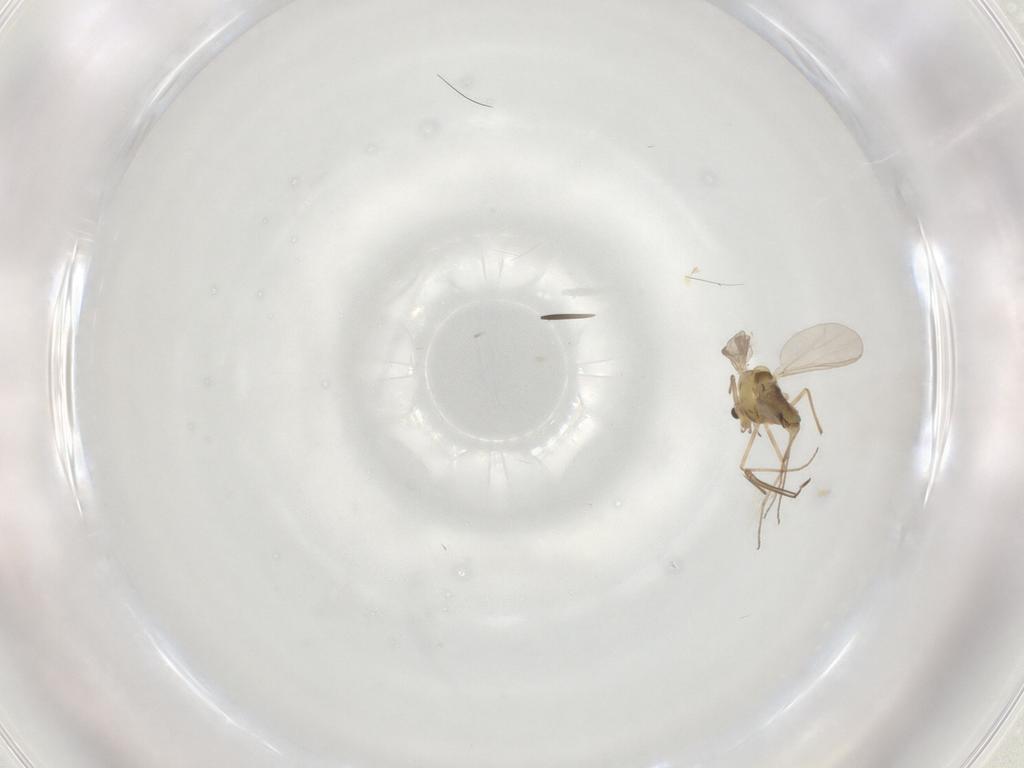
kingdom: Animalia
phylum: Arthropoda
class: Insecta
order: Diptera
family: Chironomidae
